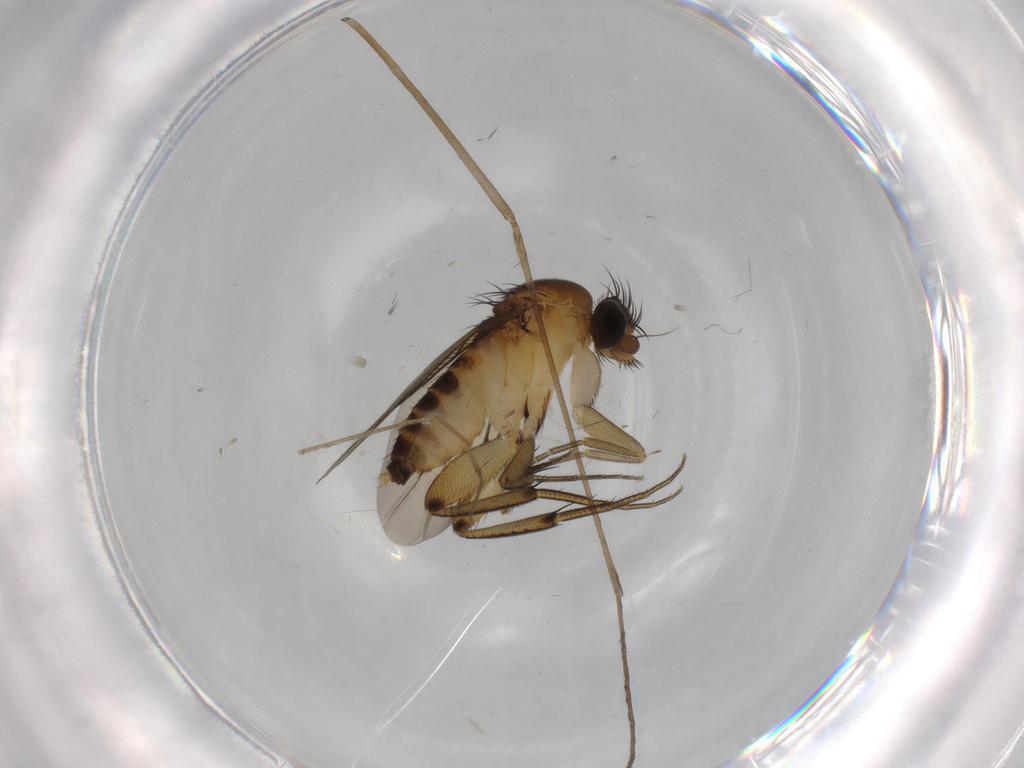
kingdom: Animalia
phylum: Arthropoda
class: Insecta
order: Diptera
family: Phoridae
